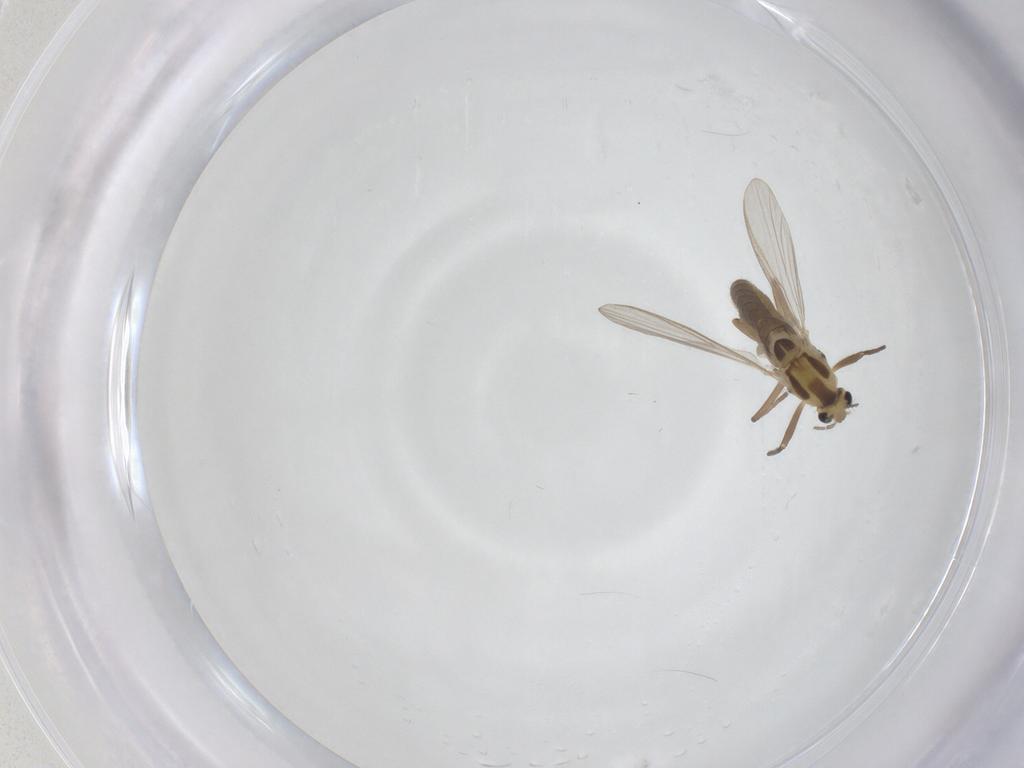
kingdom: Animalia
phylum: Arthropoda
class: Insecta
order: Diptera
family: Chironomidae
